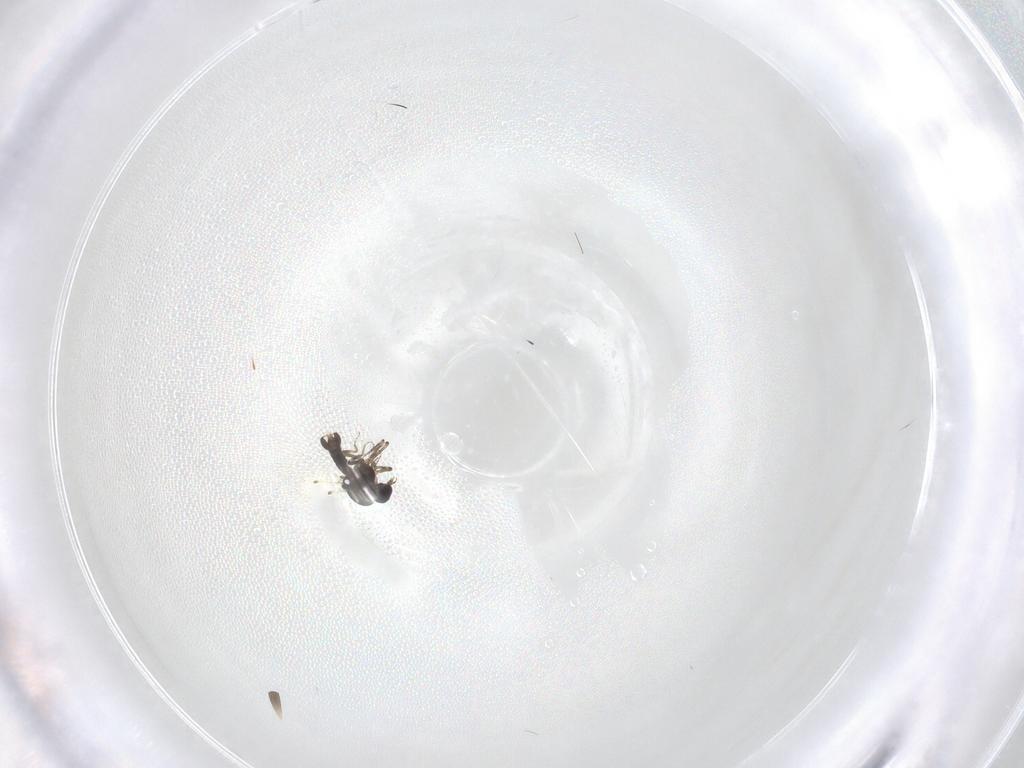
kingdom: Animalia
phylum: Arthropoda
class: Insecta
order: Diptera
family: Ceratopogonidae
